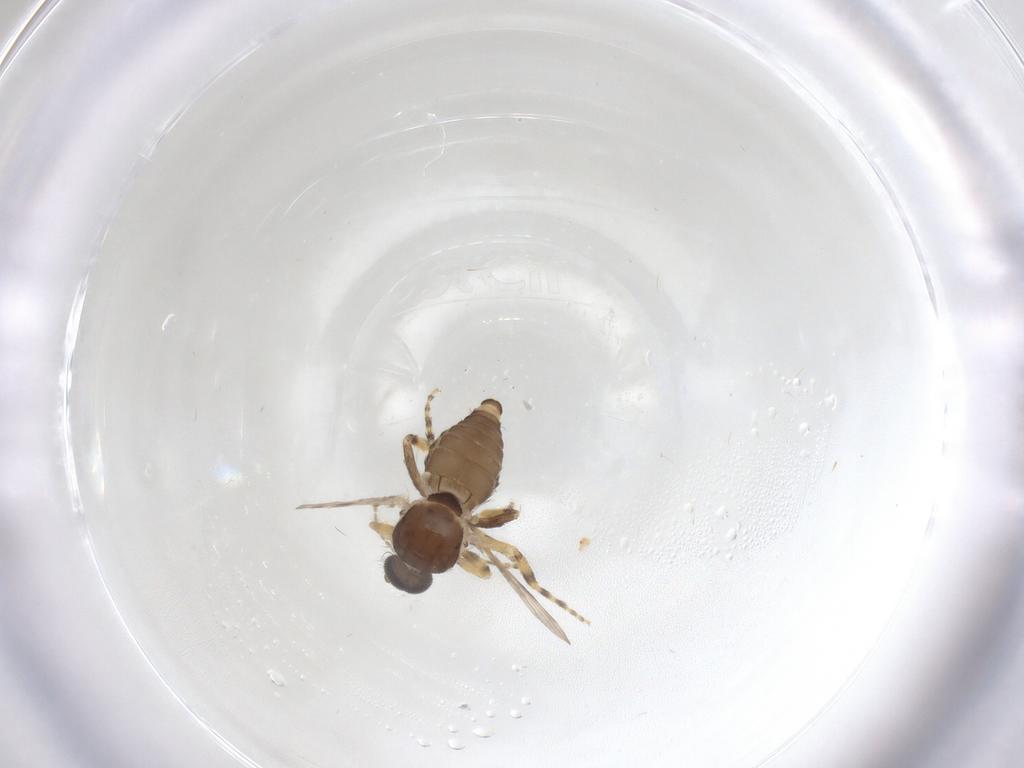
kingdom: Animalia
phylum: Arthropoda
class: Insecta
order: Diptera
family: Ceratopogonidae
